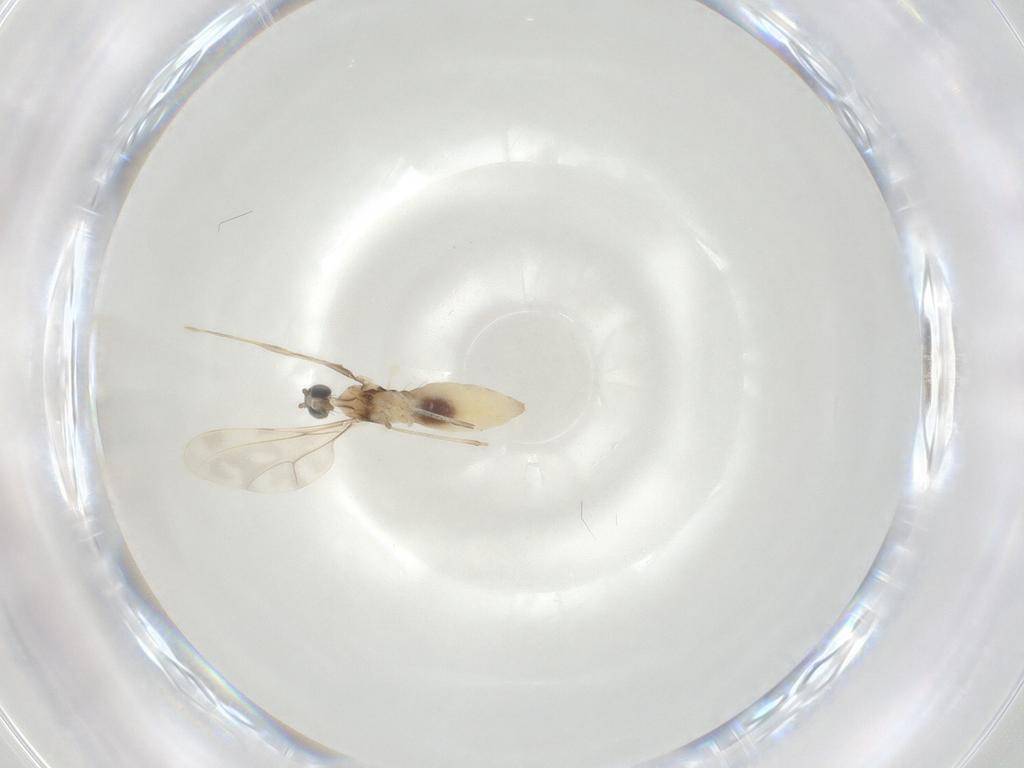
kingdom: Animalia
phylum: Arthropoda
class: Insecta
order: Diptera
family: Cecidomyiidae
